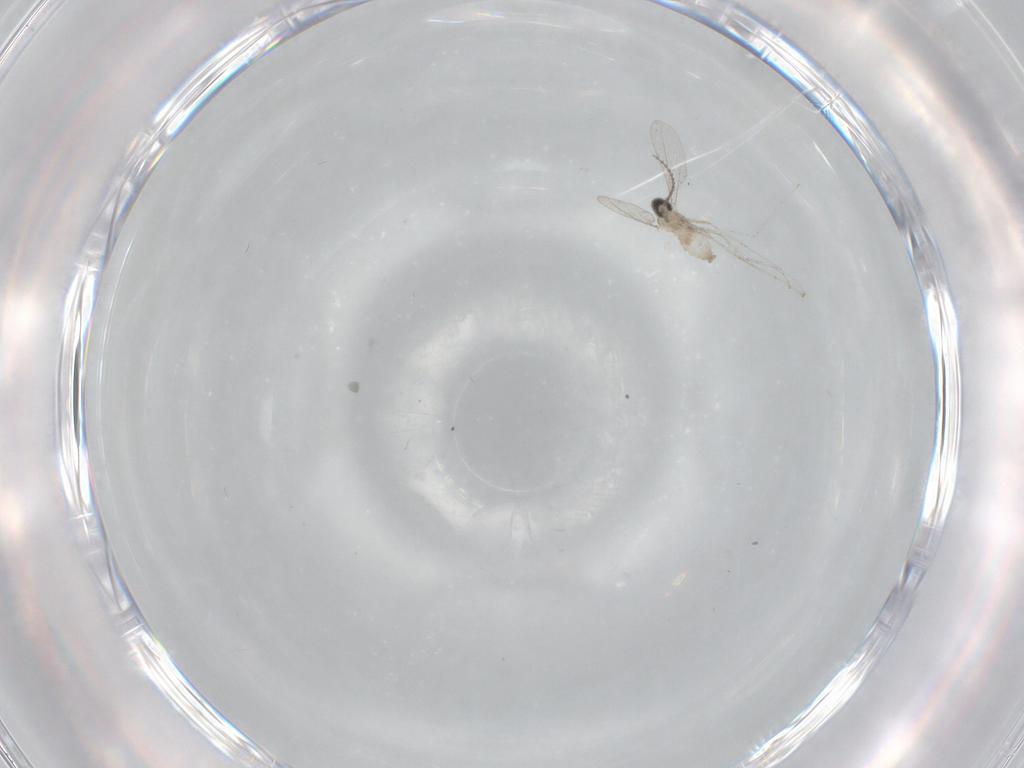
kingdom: Animalia
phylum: Arthropoda
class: Insecta
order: Diptera
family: Cecidomyiidae
